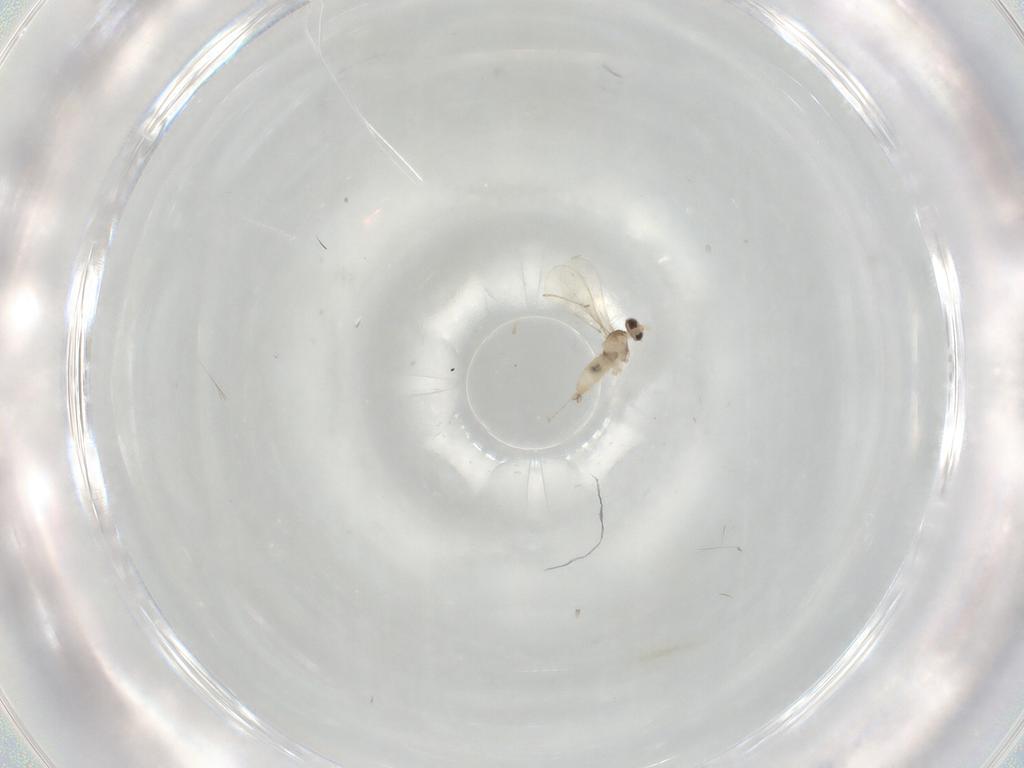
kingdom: Animalia
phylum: Arthropoda
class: Insecta
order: Diptera
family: Cecidomyiidae
